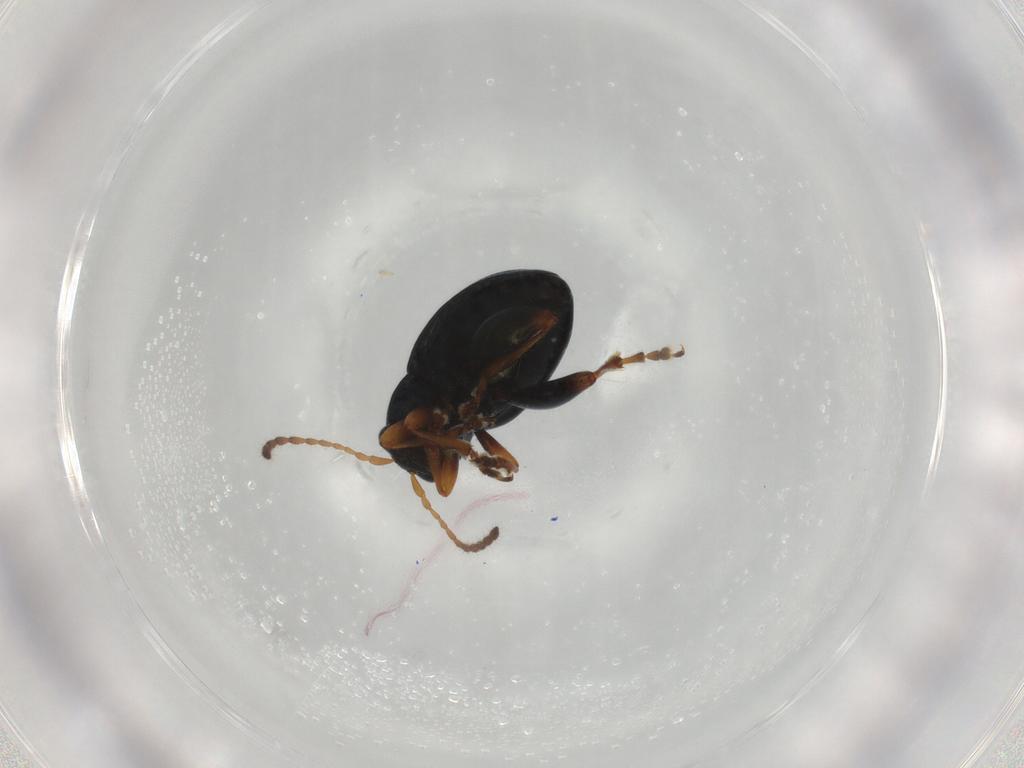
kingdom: Animalia
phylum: Arthropoda
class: Insecta
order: Coleoptera
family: Chrysomelidae
